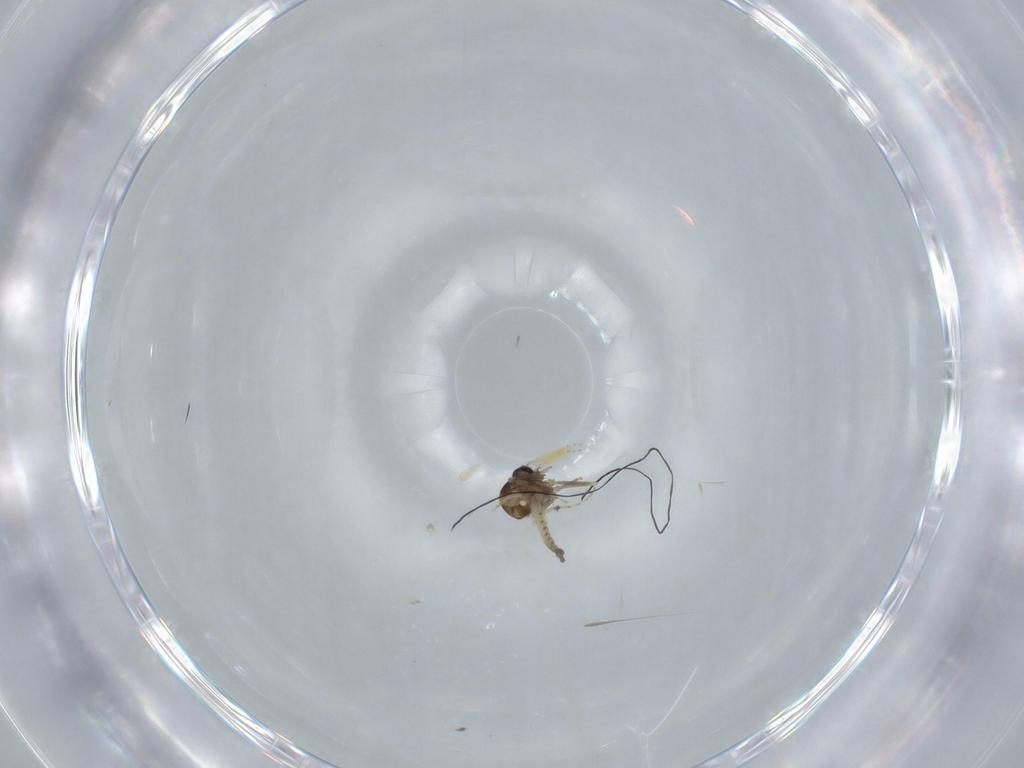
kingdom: Animalia
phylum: Arthropoda
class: Insecta
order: Diptera
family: Ceratopogonidae
